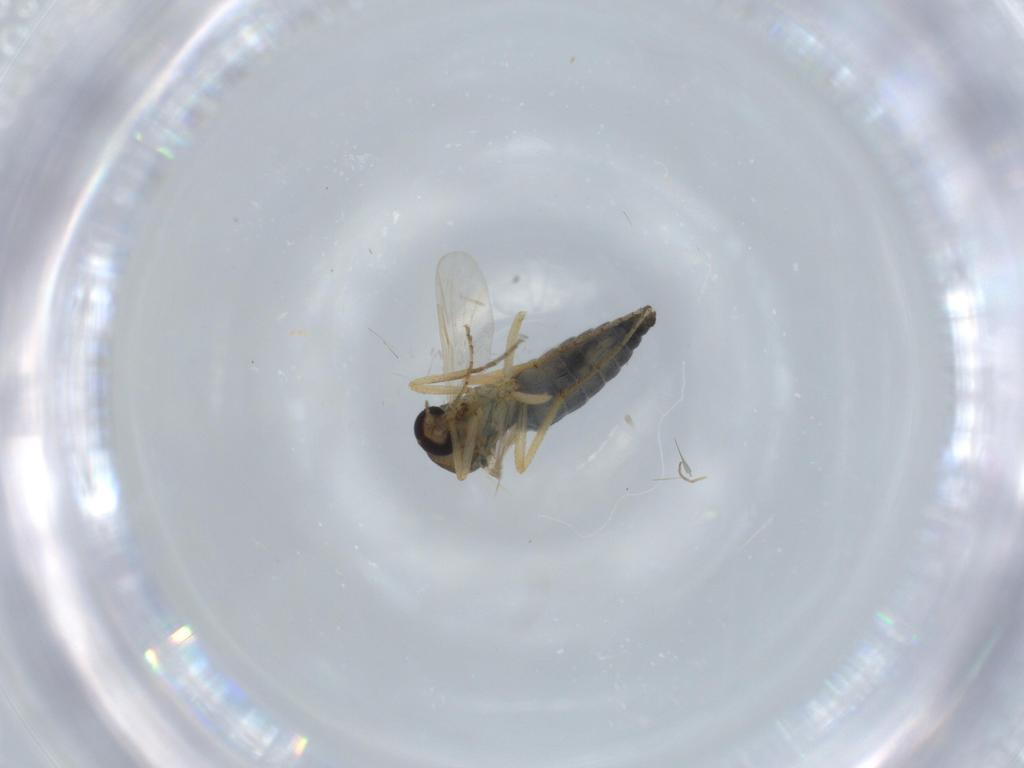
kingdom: Animalia
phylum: Arthropoda
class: Insecta
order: Diptera
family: Ceratopogonidae
